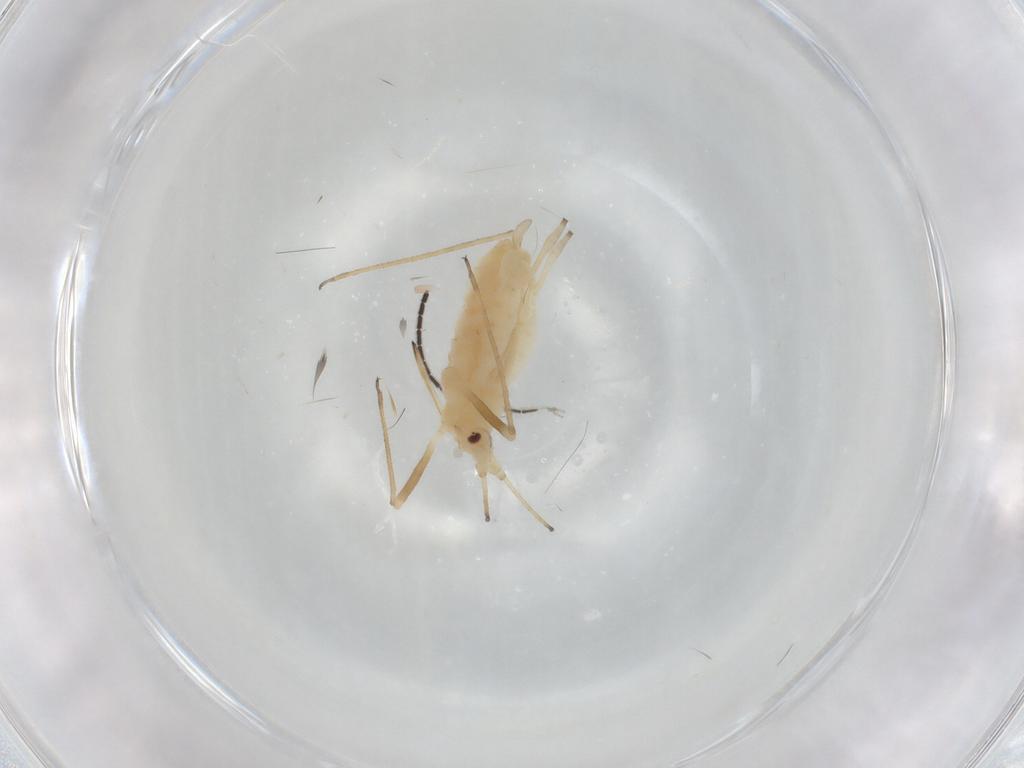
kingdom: Animalia
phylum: Arthropoda
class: Insecta
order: Hemiptera
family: Aphididae
